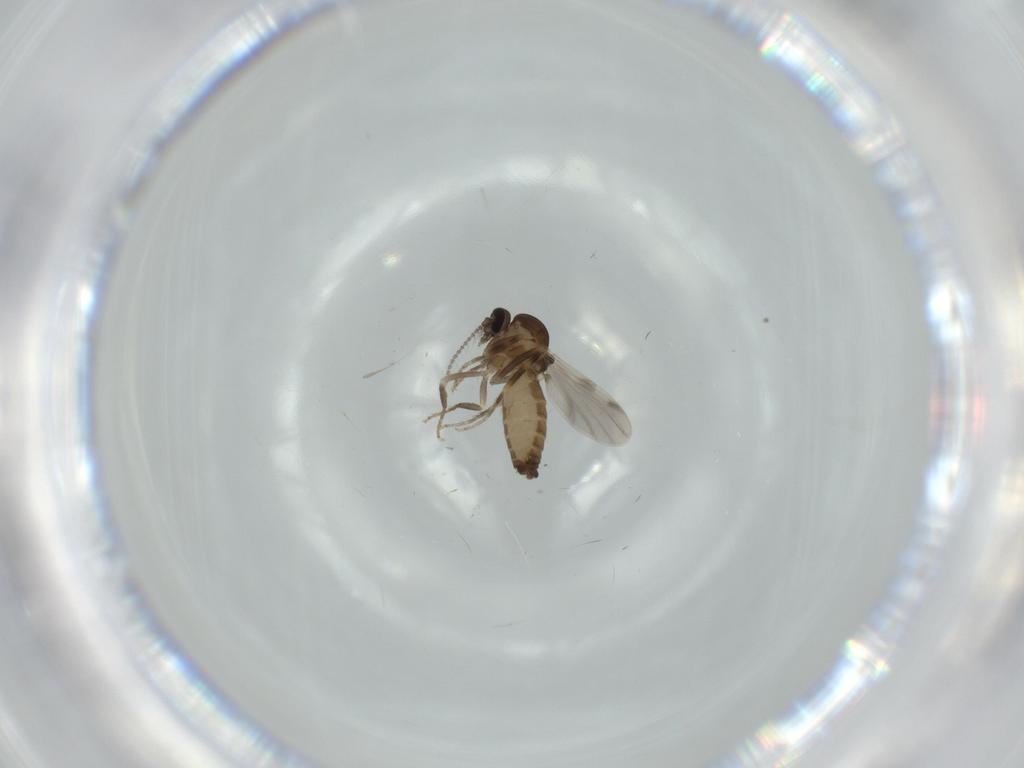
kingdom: Animalia
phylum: Arthropoda
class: Insecta
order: Diptera
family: Ceratopogonidae
